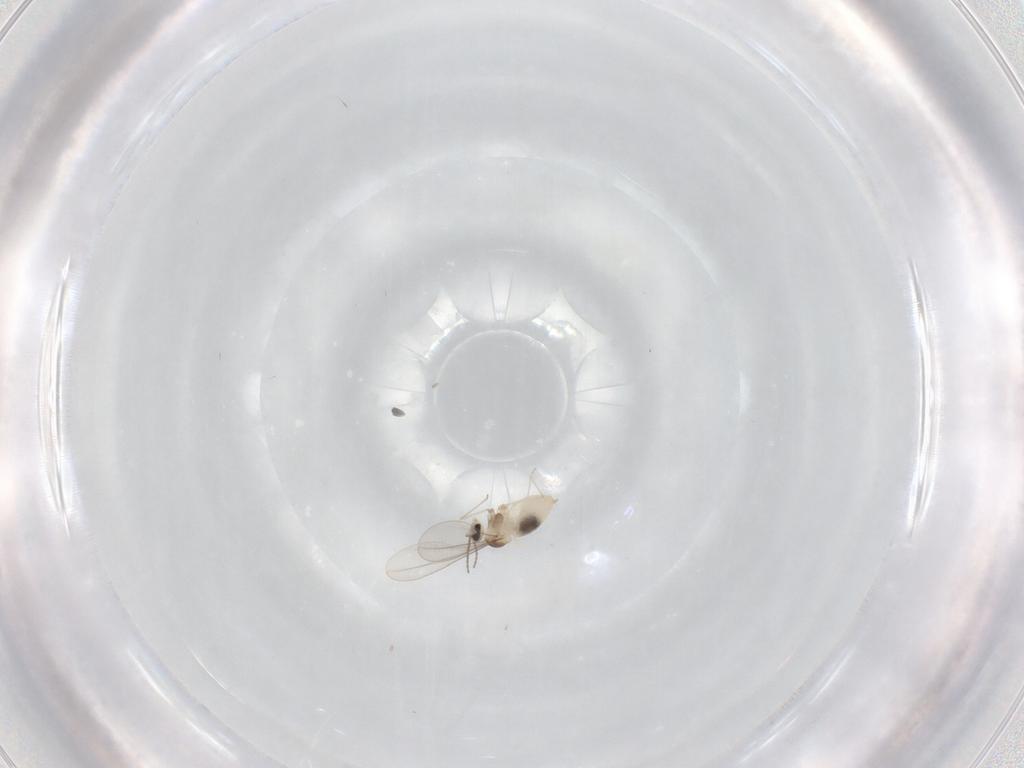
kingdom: Animalia
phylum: Arthropoda
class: Insecta
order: Diptera
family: Cecidomyiidae
